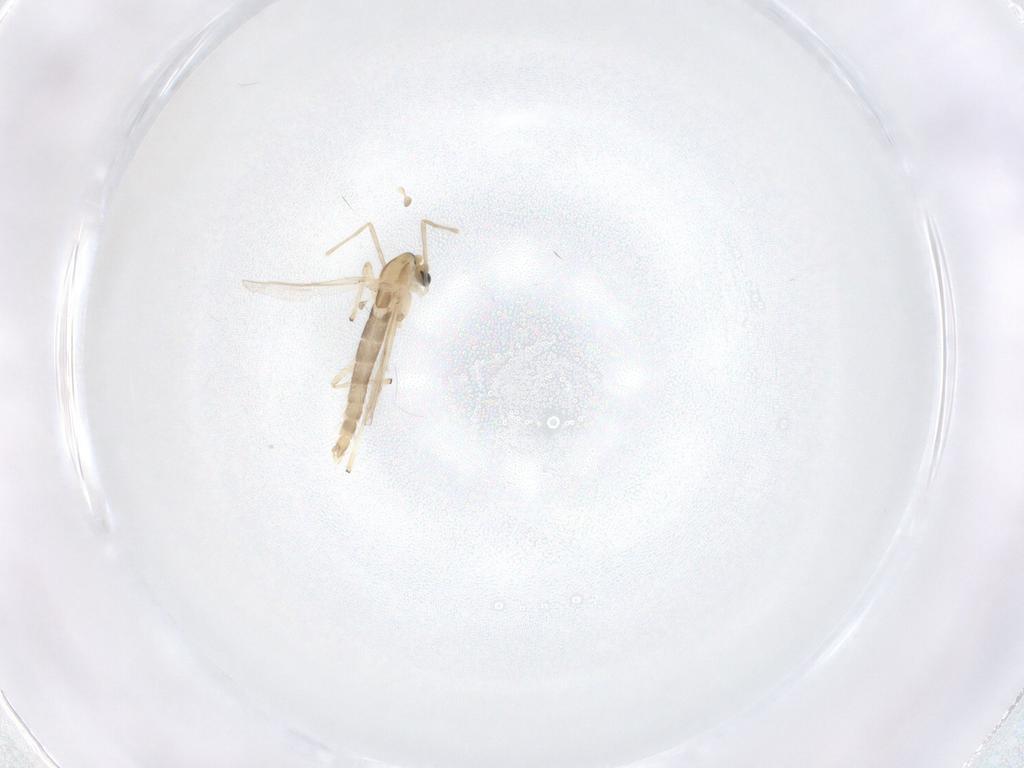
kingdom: Animalia
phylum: Arthropoda
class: Insecta
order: Diptera
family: Chironomidae
